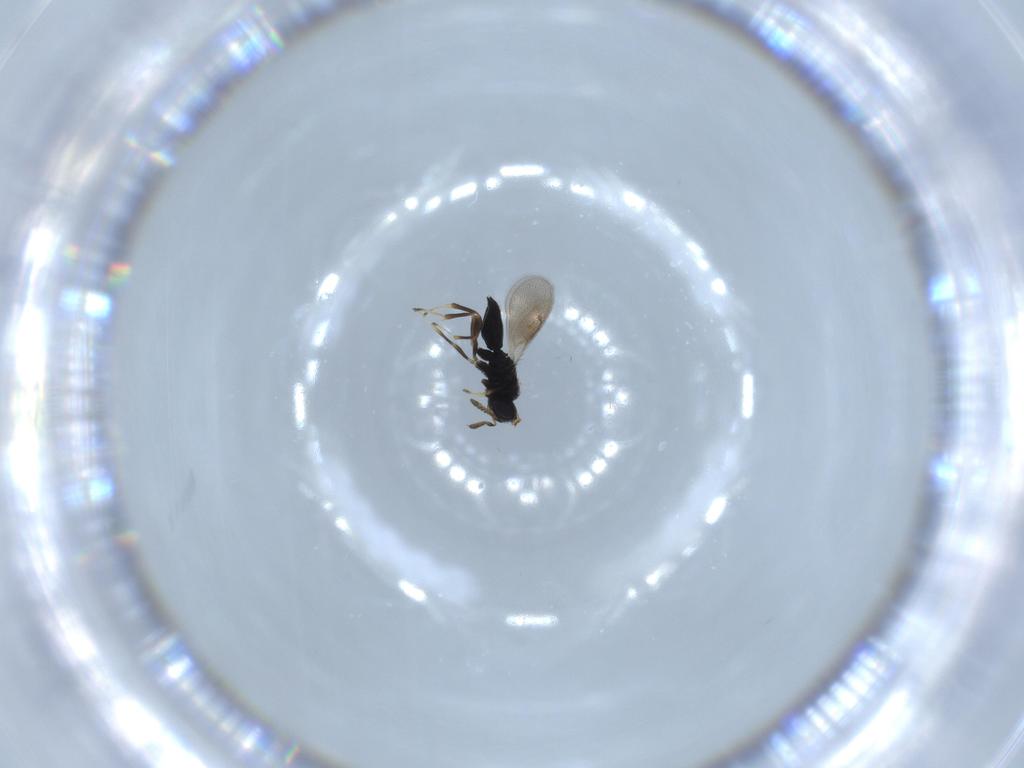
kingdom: Animalia
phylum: Arthropoda
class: Insecta
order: Hymenoptera
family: Pteromalidae
